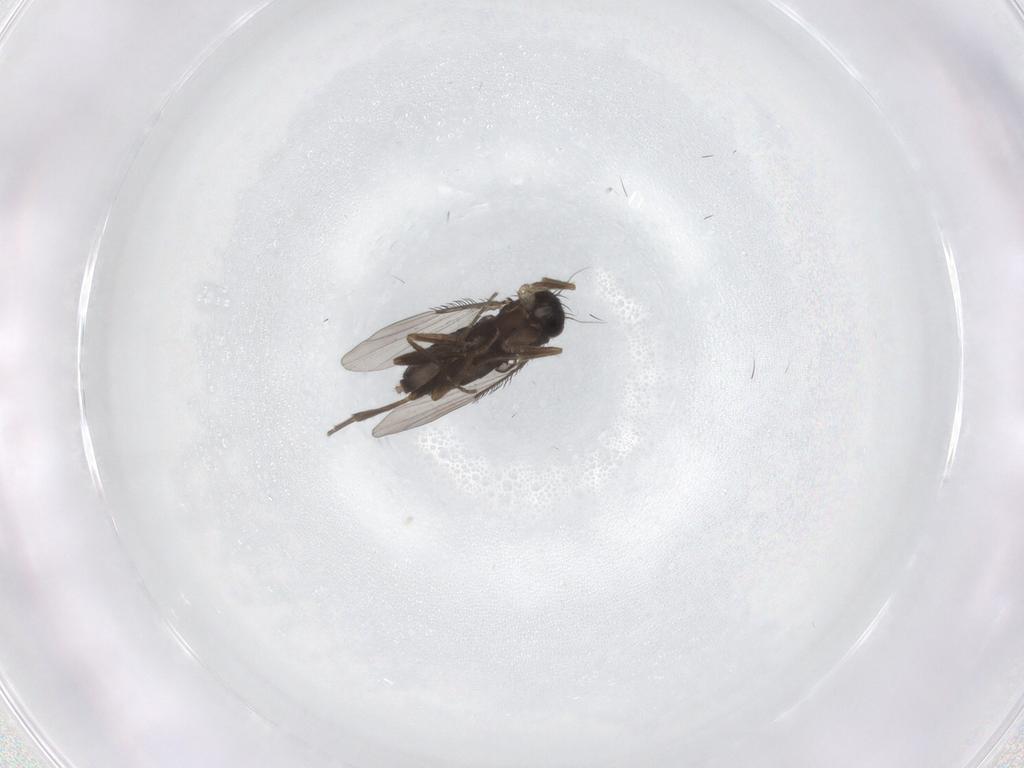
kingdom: Animalia
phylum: Arthropoda
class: Insecta
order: Diptera
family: Phoridae
